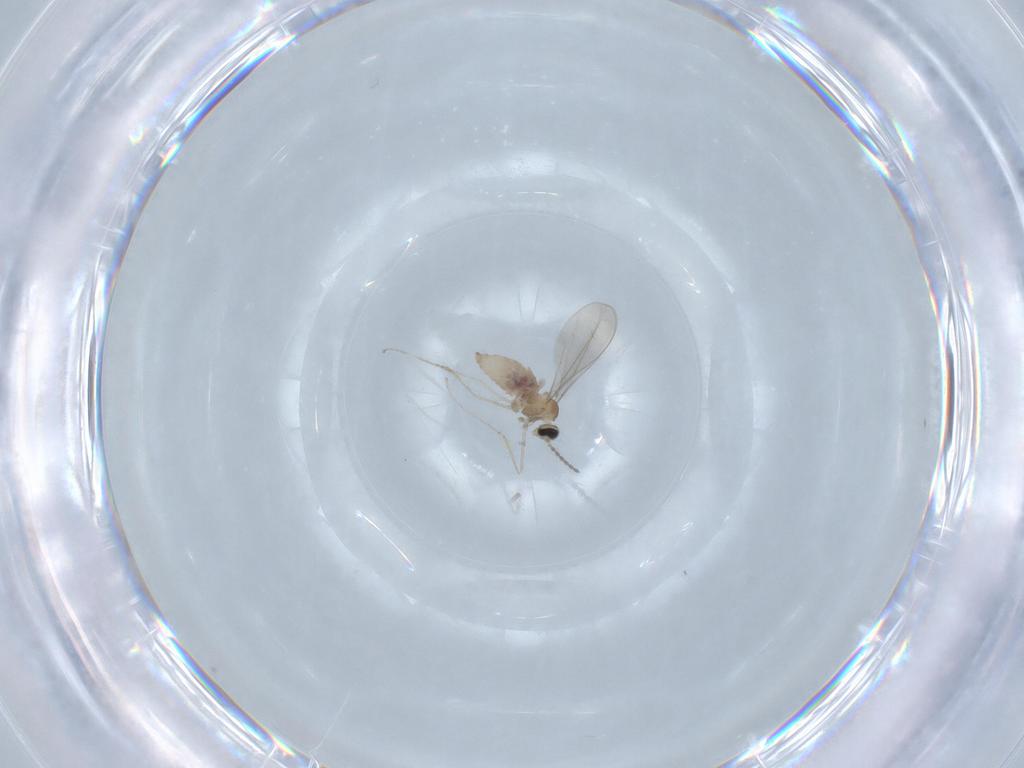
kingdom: Animalia
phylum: Arthropoda
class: Insecta
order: Diptera
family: Cecidomyiidae
